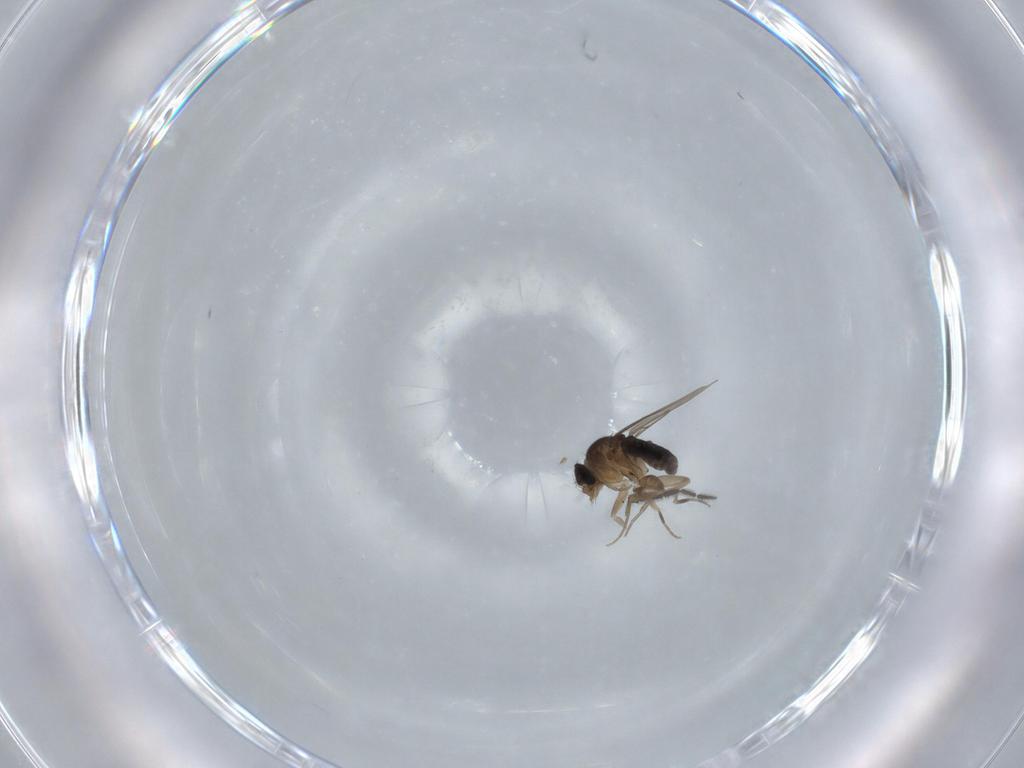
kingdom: Animalia
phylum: Arthropoda
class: Insecta
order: Diptera
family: Phoridae
